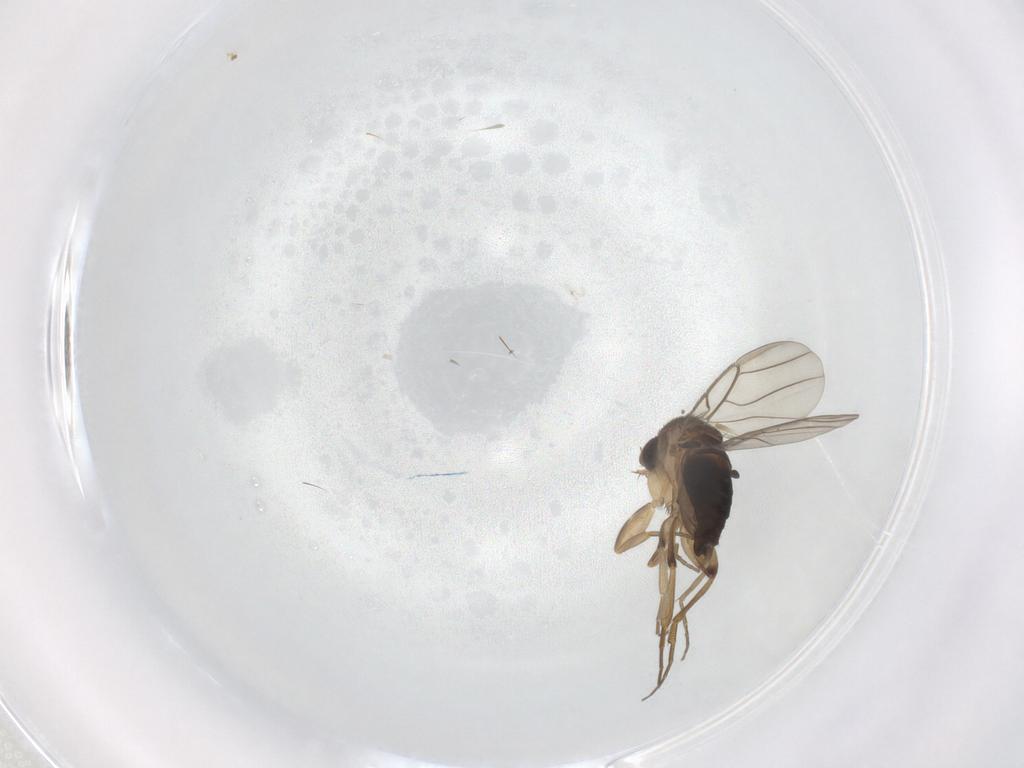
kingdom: Animalia
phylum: Arthropoda
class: Insecta
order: Diptera
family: Phoridae
